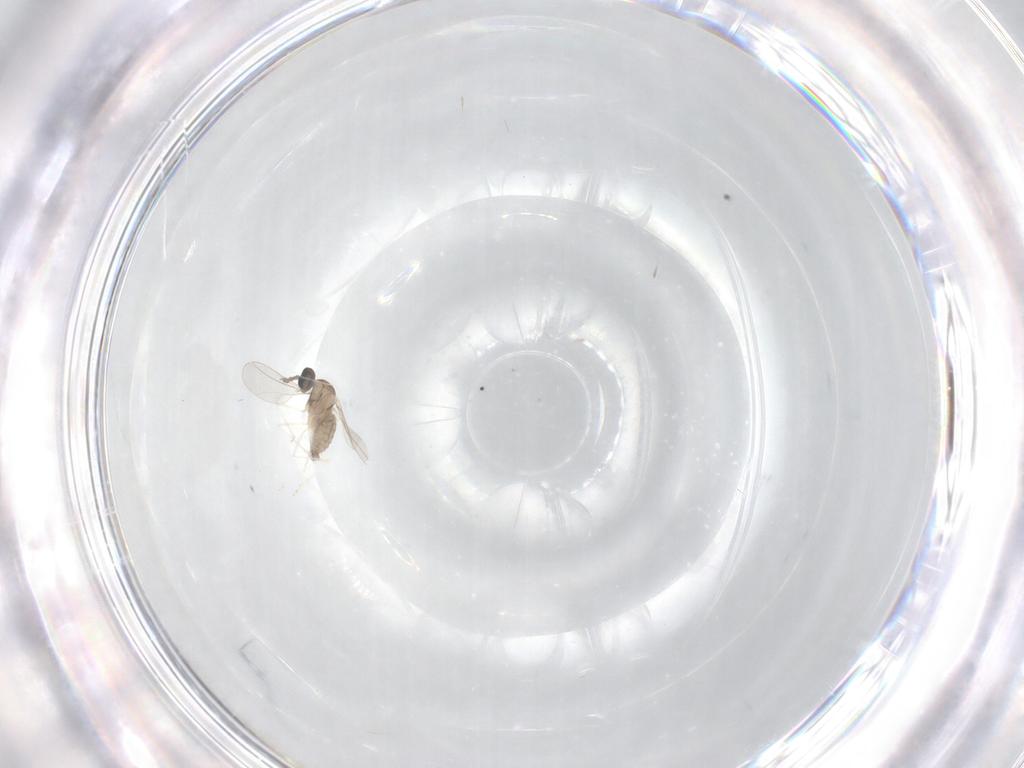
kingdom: Animalia
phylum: Arthropoda
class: Insecta
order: Diptera
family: Cecidomyiidae
